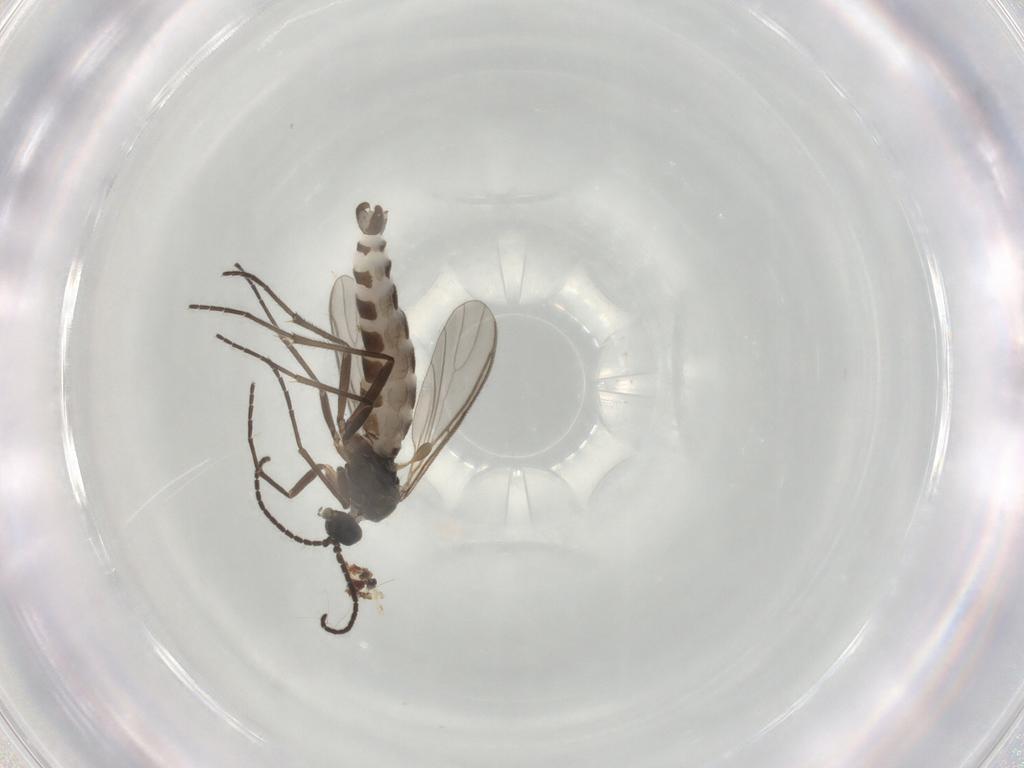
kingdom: Animalia
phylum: Arthropoda
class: Insecta
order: Diptera
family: Sciaridae
